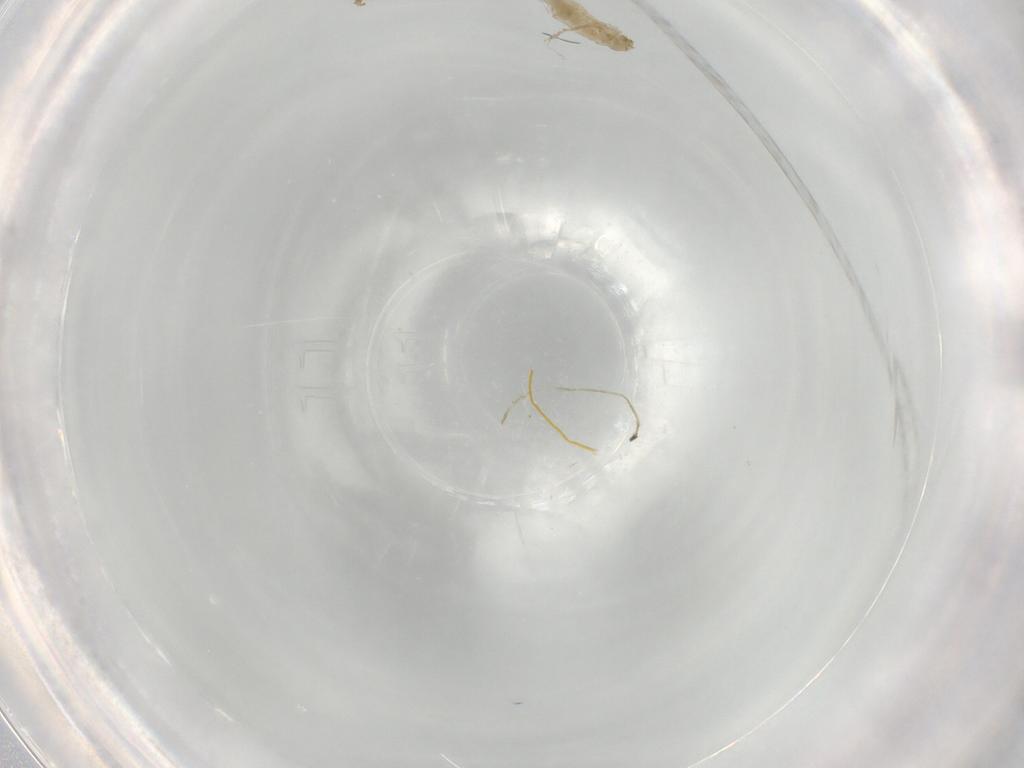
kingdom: Animalia
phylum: Arthropoda
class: Insecta
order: Diptera
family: Chironomidae
